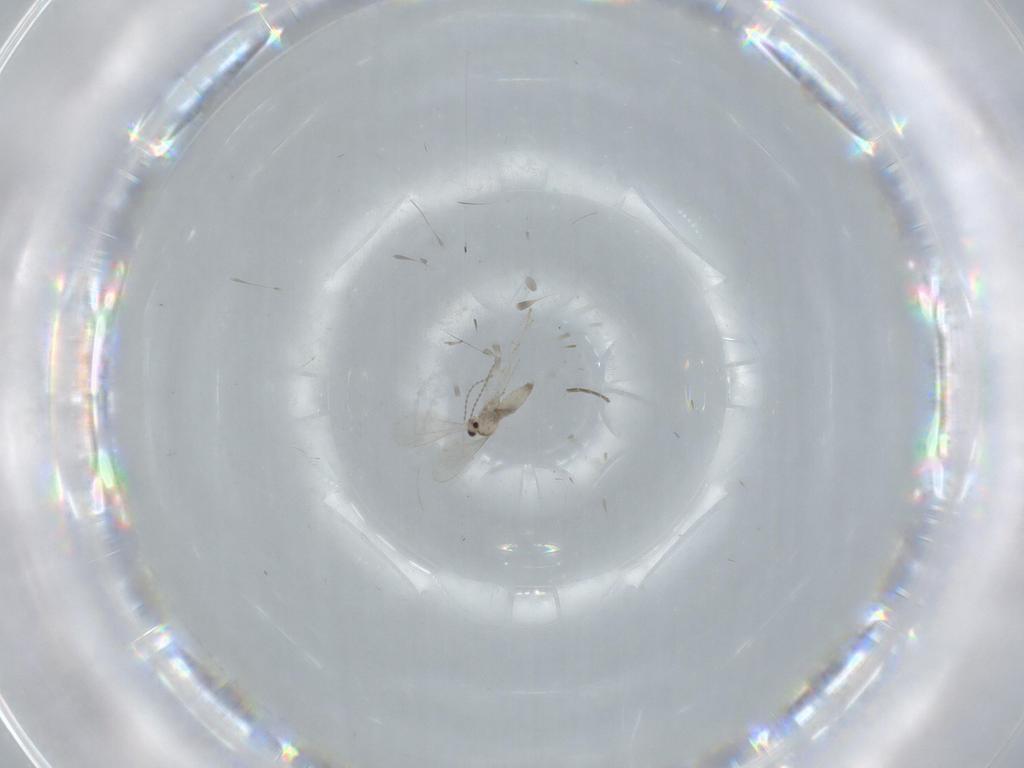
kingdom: Animalia
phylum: Arthropoda
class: Insecta
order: Diptera
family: Cecidomyiidae
